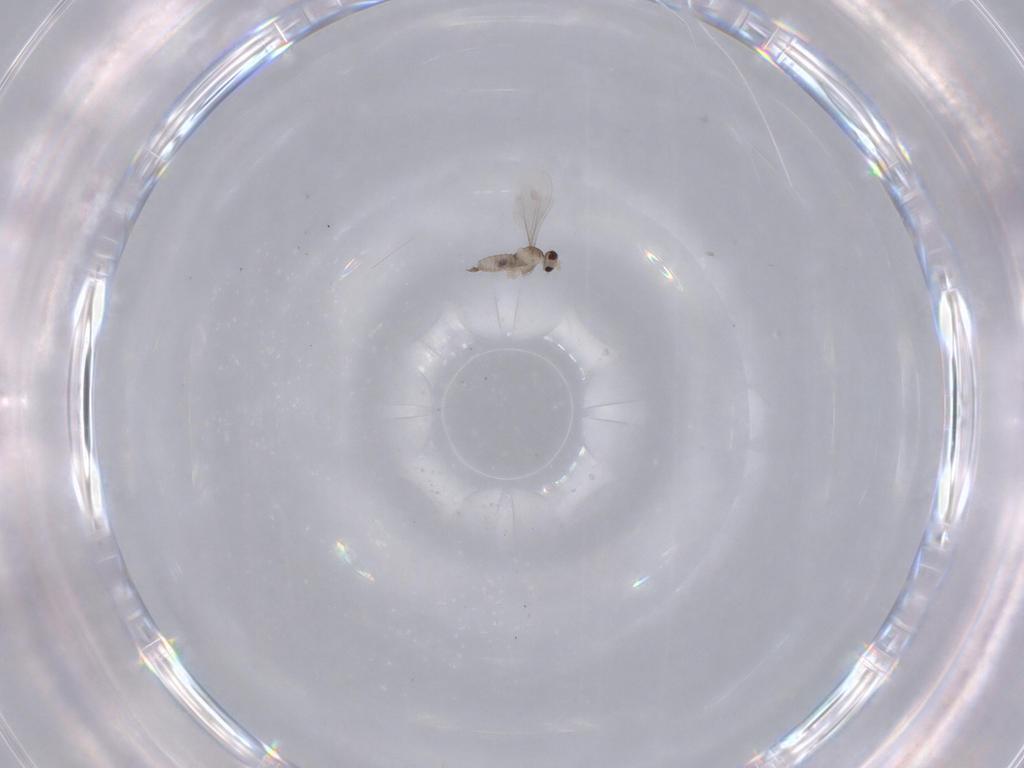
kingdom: Animalia
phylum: Arthropoda
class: Insecta
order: Diptera
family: Cecidomyiidae
